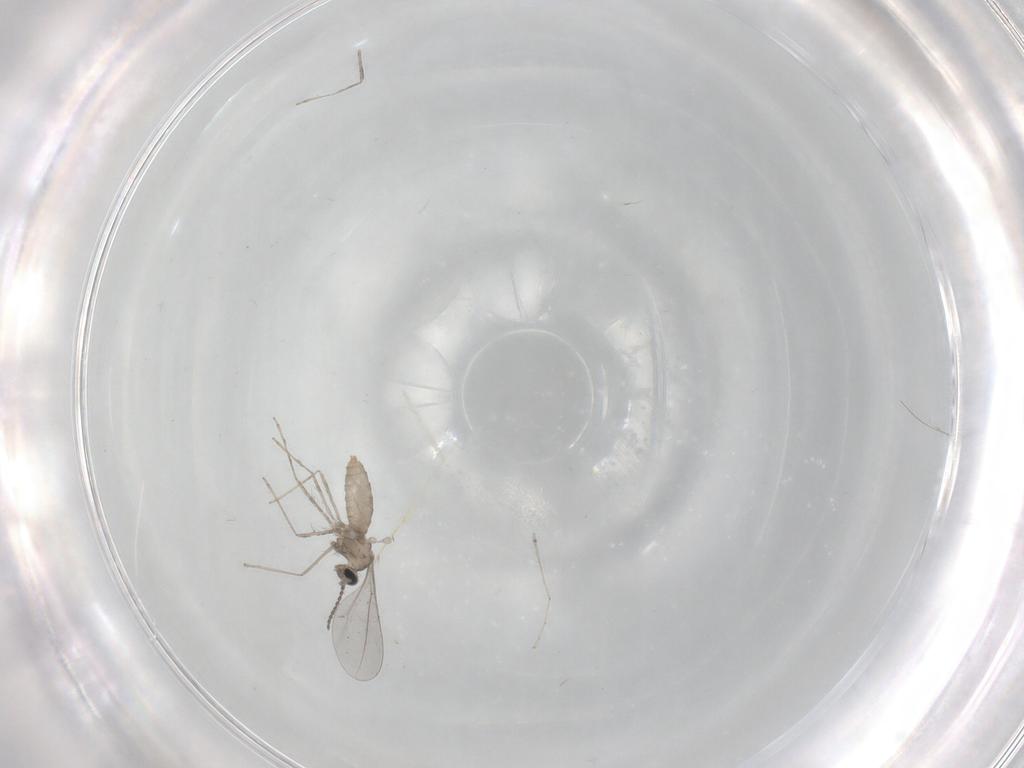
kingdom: Animalia
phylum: Arthropoda
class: Insecta
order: Diptera
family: Cecidomyiidae
